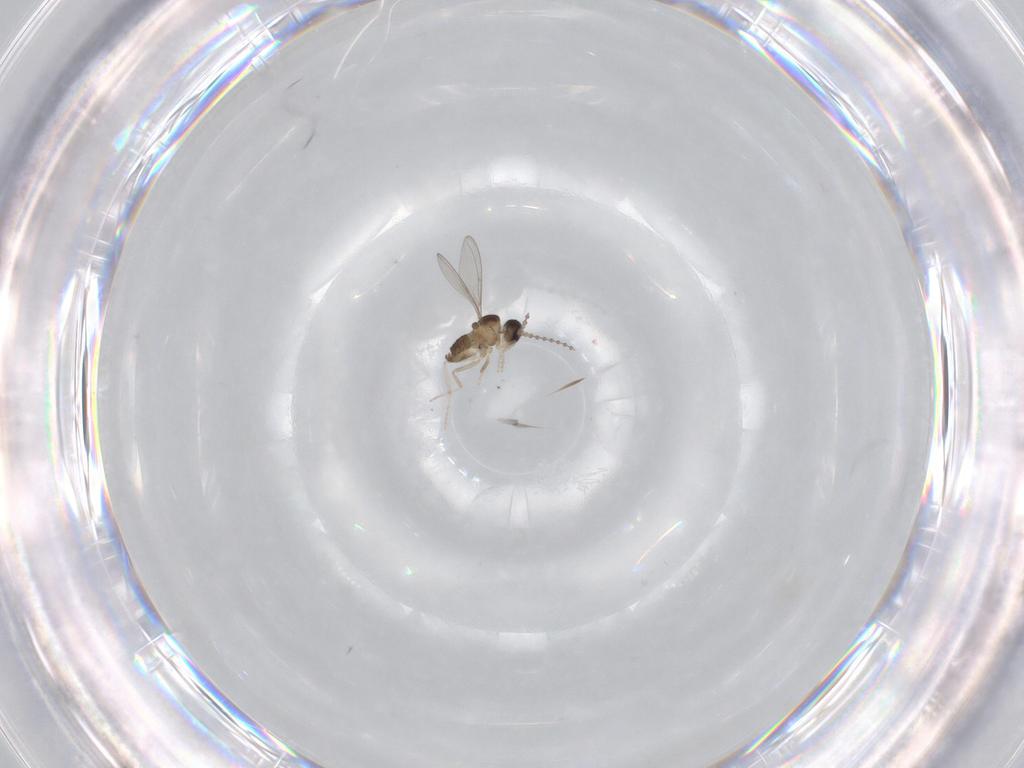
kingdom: Animalia
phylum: Arthropoda
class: Insecta
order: Diptera
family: Cecidomyiidae
